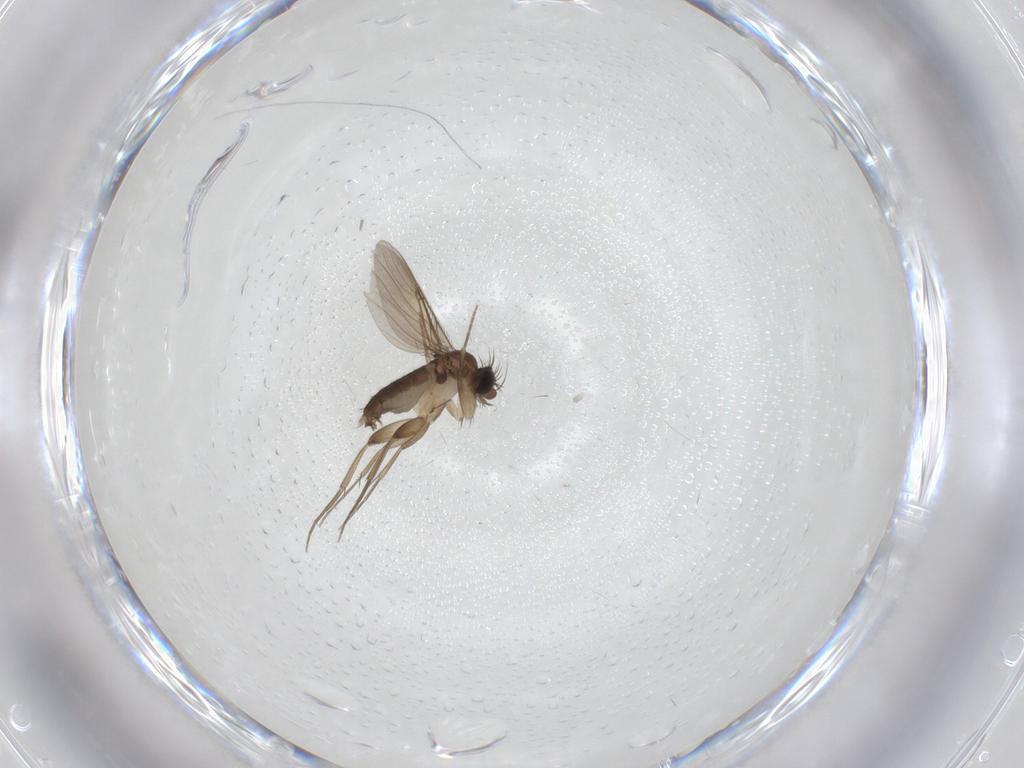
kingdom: Animalia
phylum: Arthropoda
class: Insecta
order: Diptera
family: Phoridae
